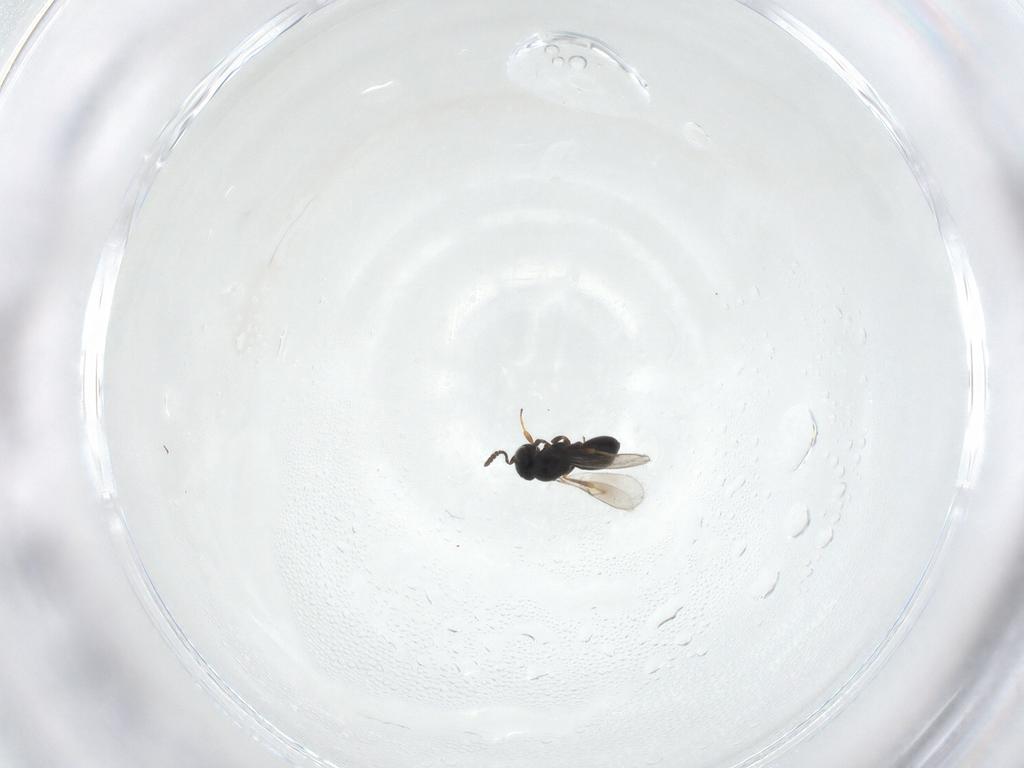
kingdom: Animalia
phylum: Arthropoda
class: Insecta
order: Hymenoptera
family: Scelionidae
